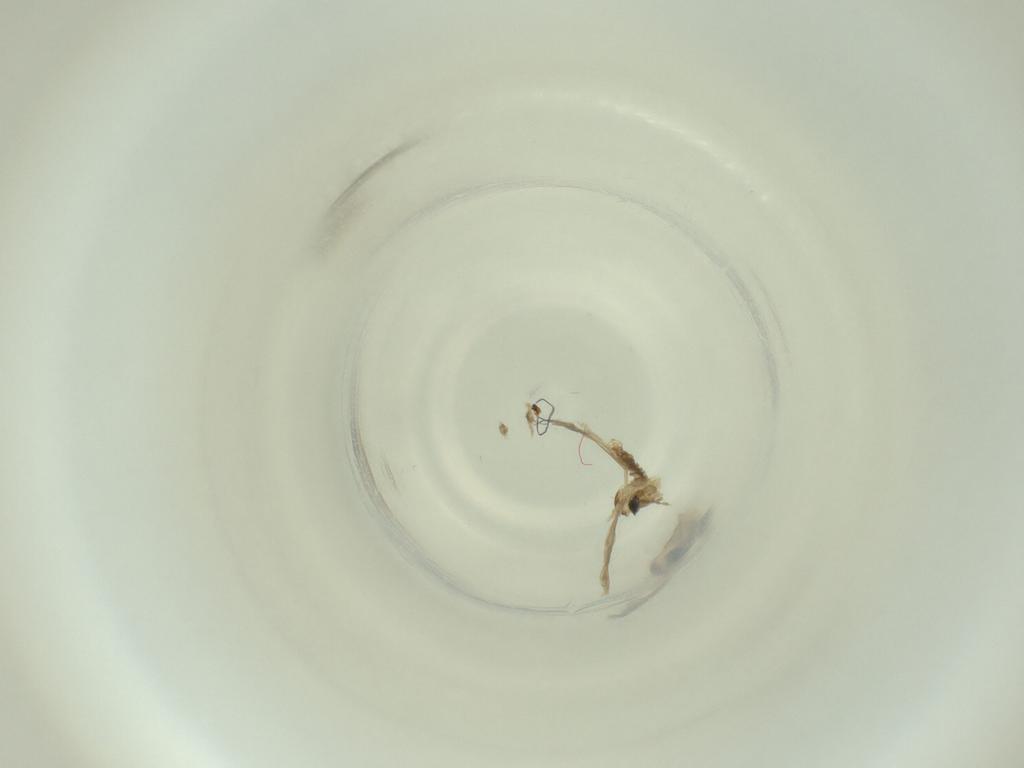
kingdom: Animalia
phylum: Arthropoda
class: Insecta
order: Diptera
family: Cecidomyiidae
